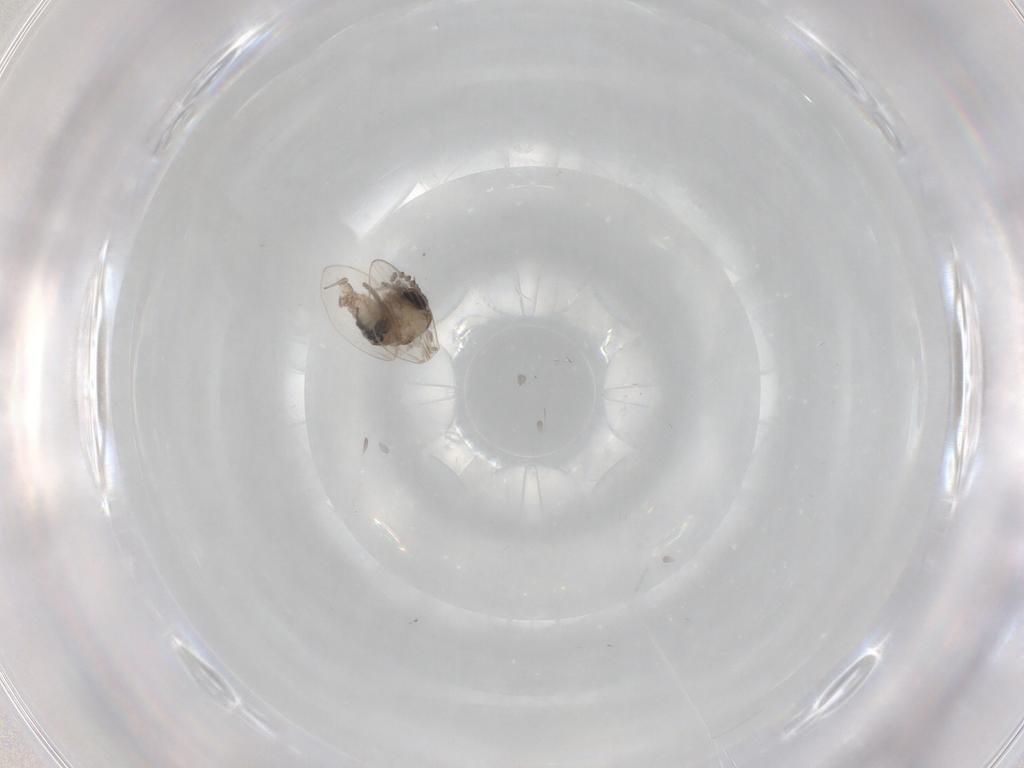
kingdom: Animalia
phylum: Arthropoda
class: Insecta
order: Diptera
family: Psychodidae
